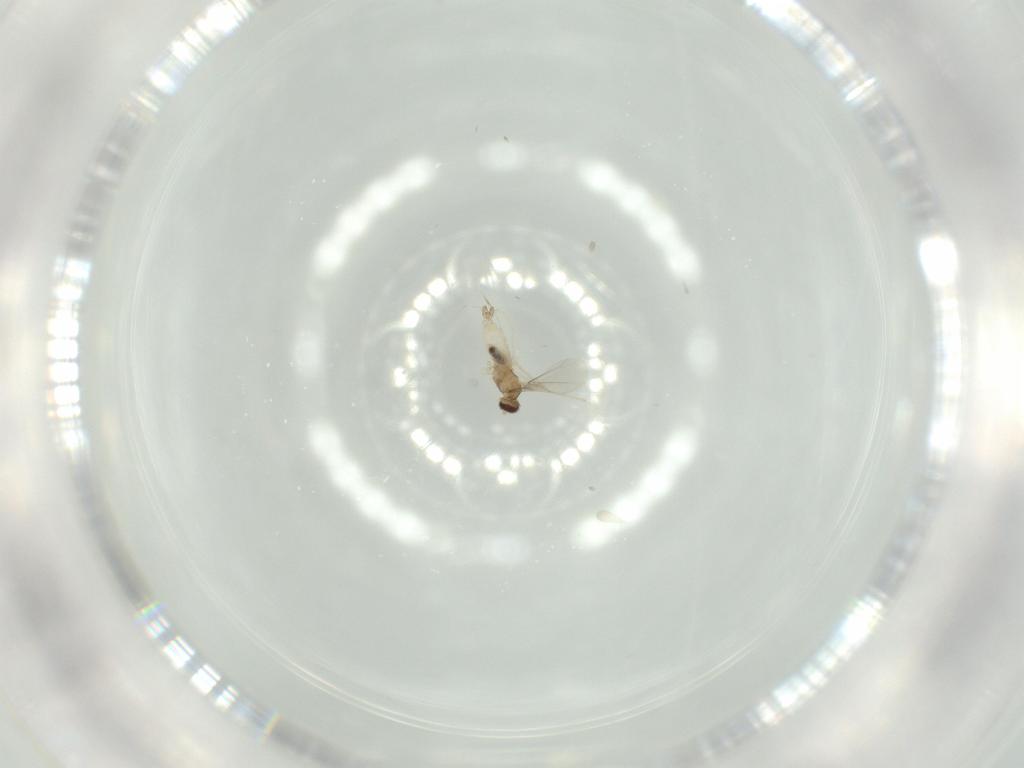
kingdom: Animalia
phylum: Arthropoda
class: Insecta
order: Diptera
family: Cecidomyiidae
